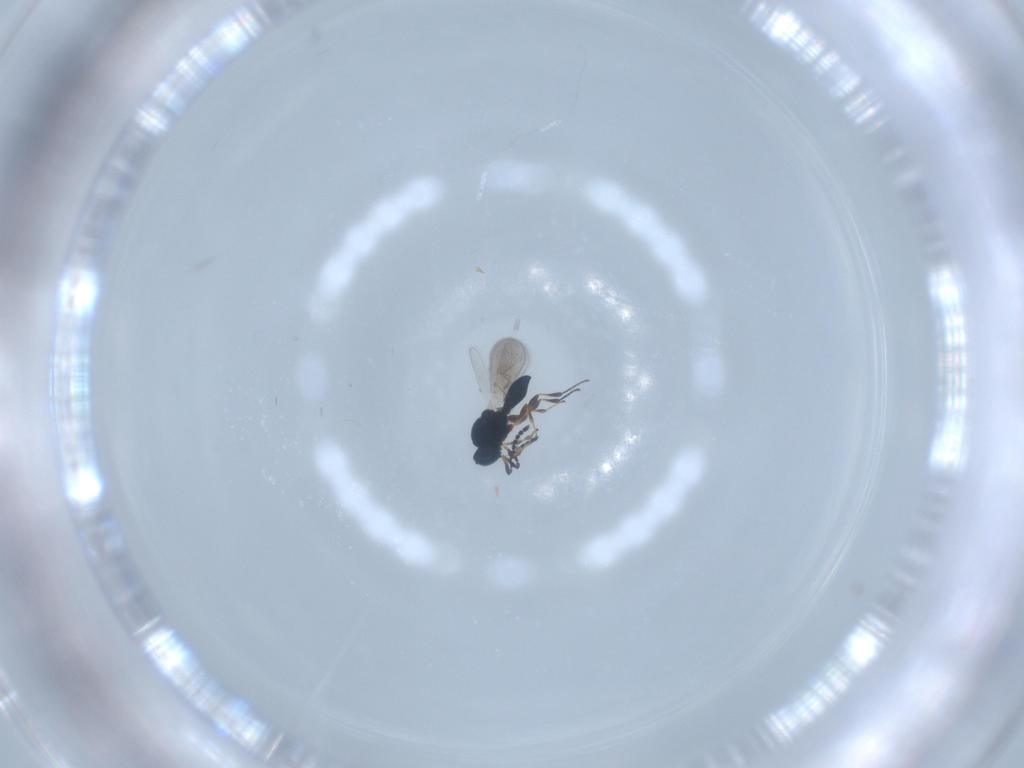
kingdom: Animalia
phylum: Arthropoda
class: Insecta
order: Hymenoptera
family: Platygastridae
